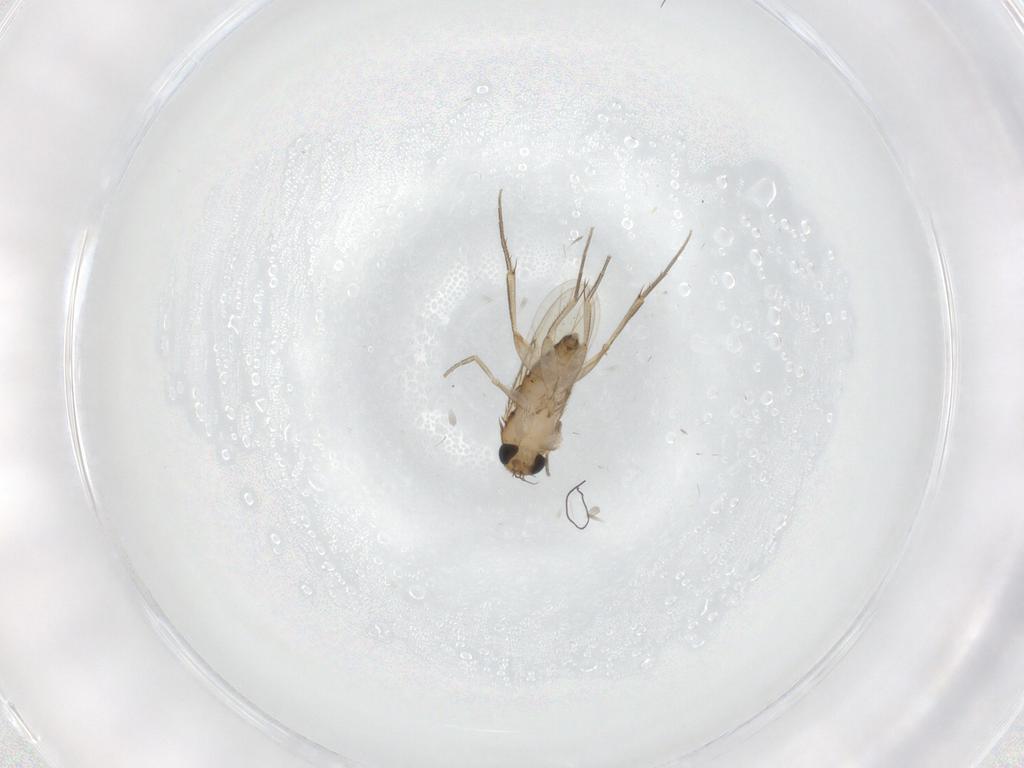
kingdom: Animalia
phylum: Arthropoda
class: Insecta
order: Diptera
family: Phoridae
